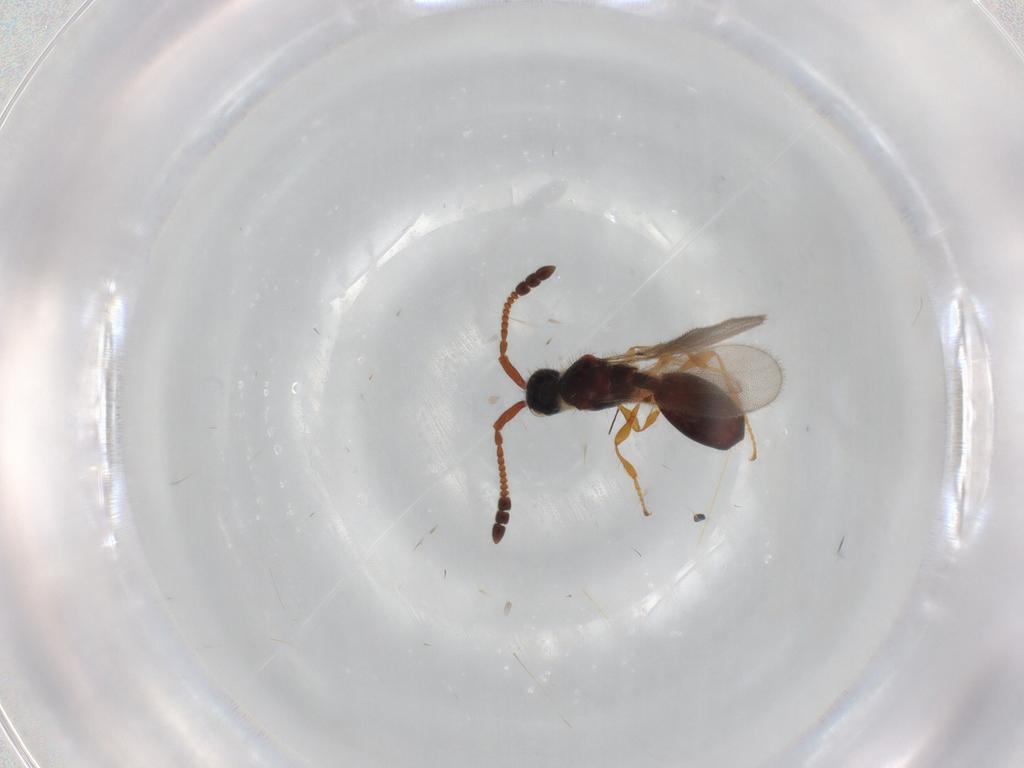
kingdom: Animalia
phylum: Arthropoda
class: Insecta
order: Hymenoptera
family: Diapriidae
